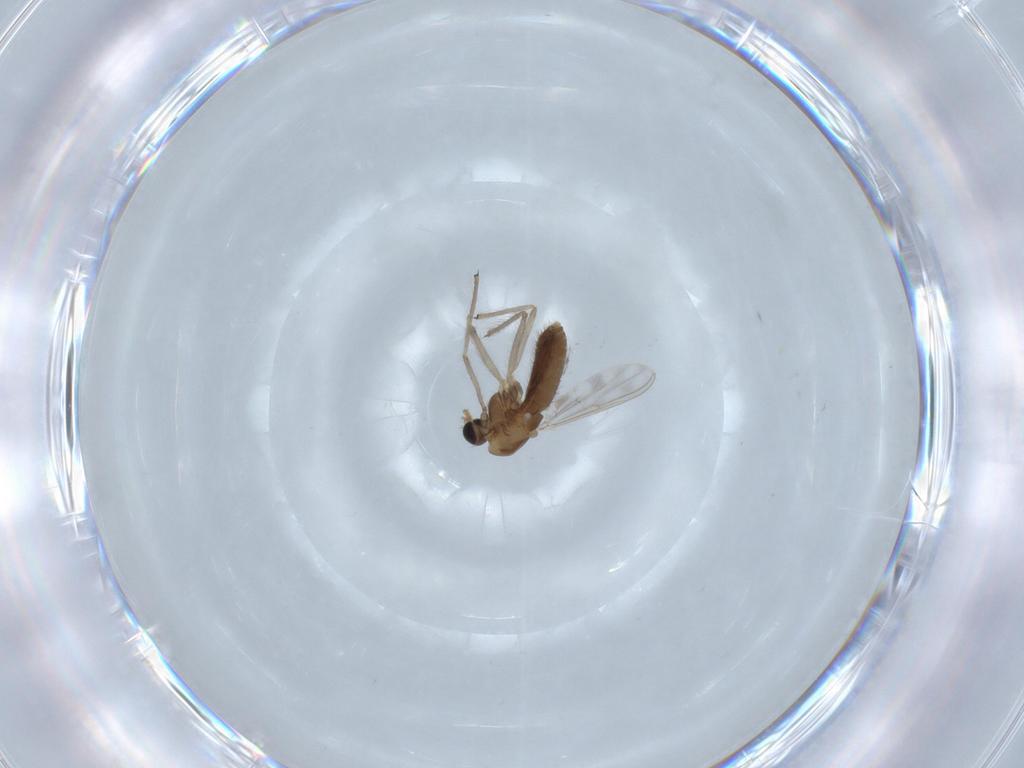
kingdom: Animalia
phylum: Arthropoda
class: Insecta
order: Diptera
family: Chironomidae
